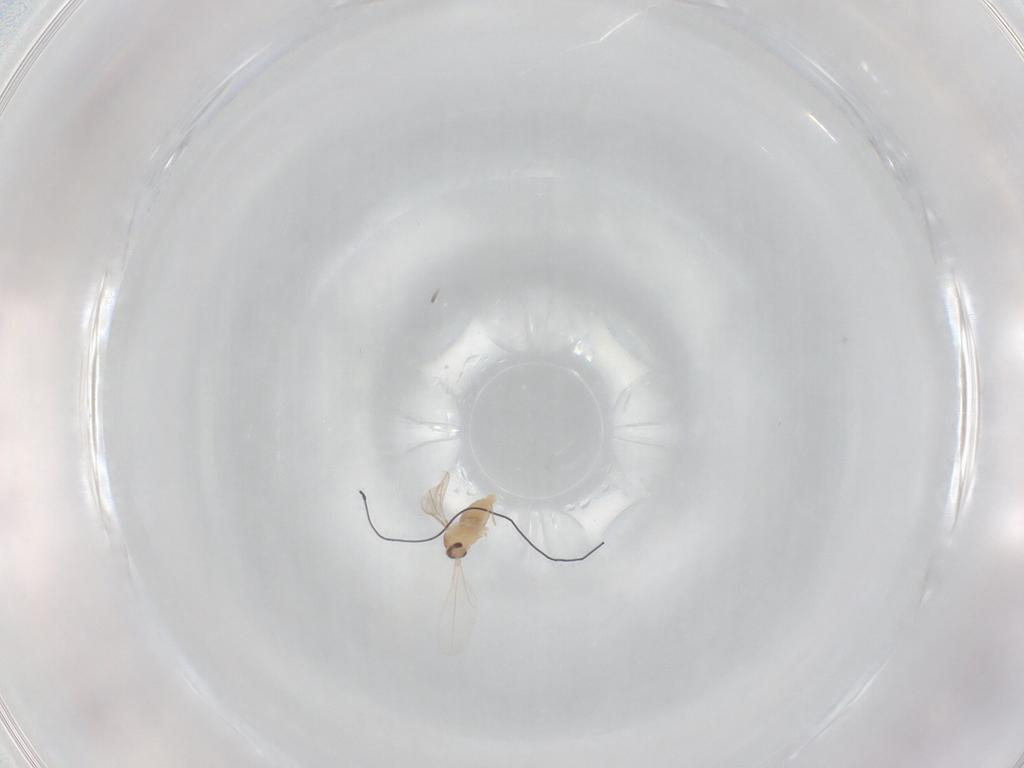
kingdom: Animalia
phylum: Arthropoda
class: Insecta
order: Diptera
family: Cecidomyiidae
